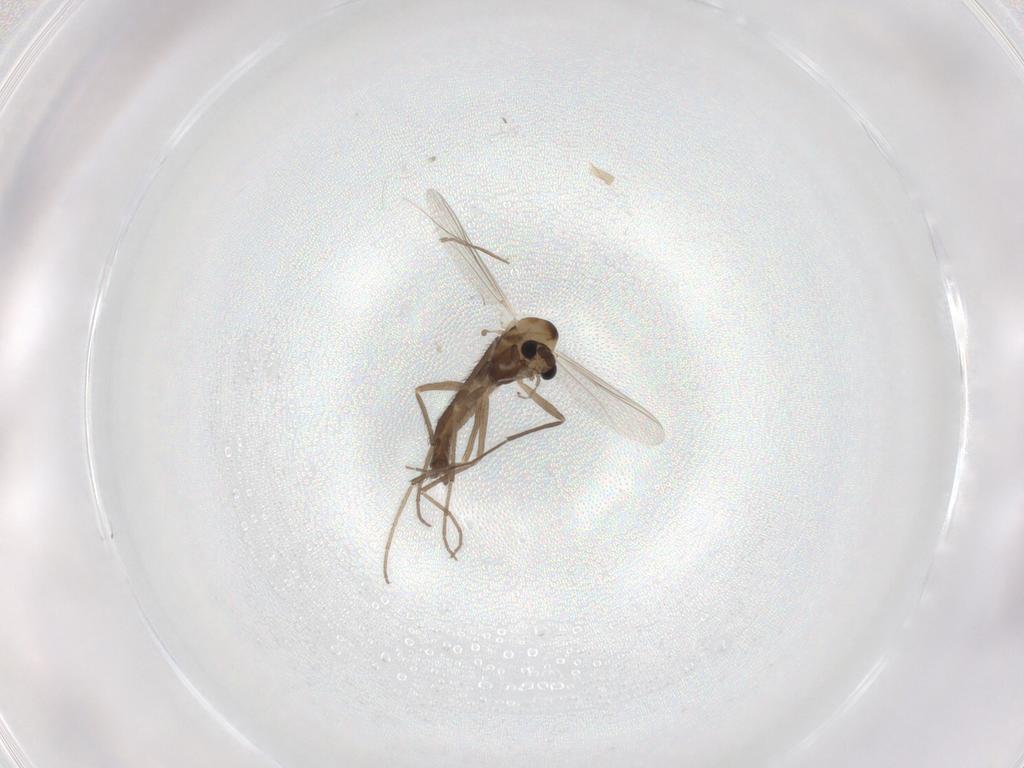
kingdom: Animalia
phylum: Arthropoda
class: Insecta
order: Diptera
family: Chironomidae
